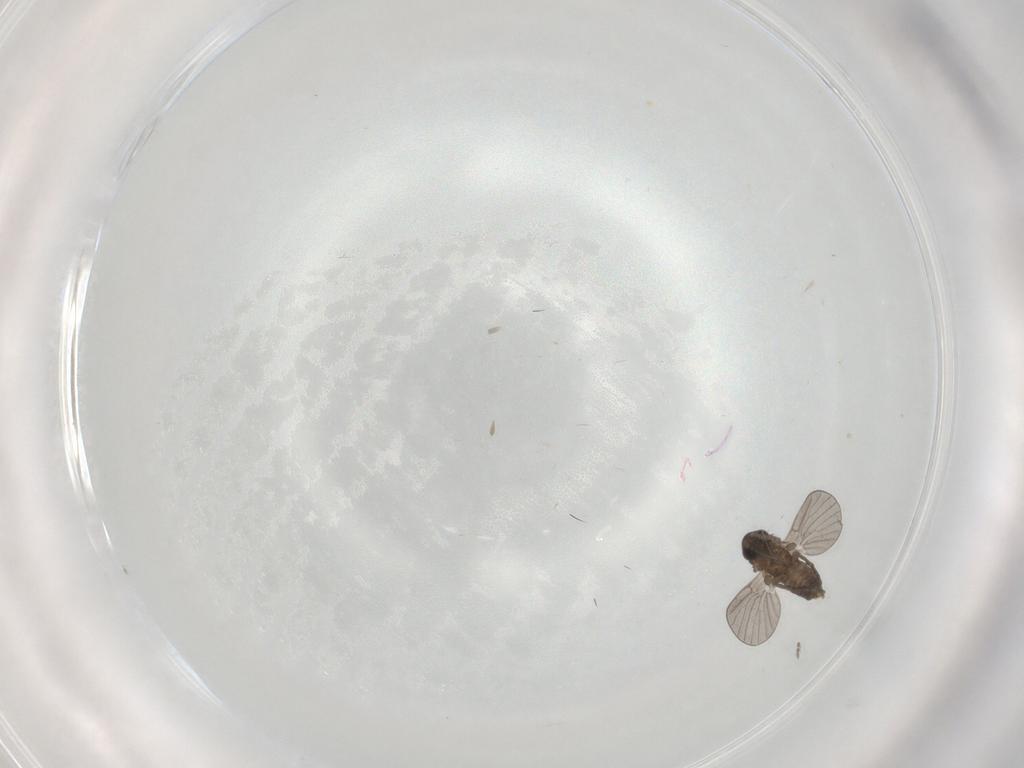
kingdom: Animalia
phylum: Arthropoda
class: Insecta
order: Diptera
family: Psychodidae
